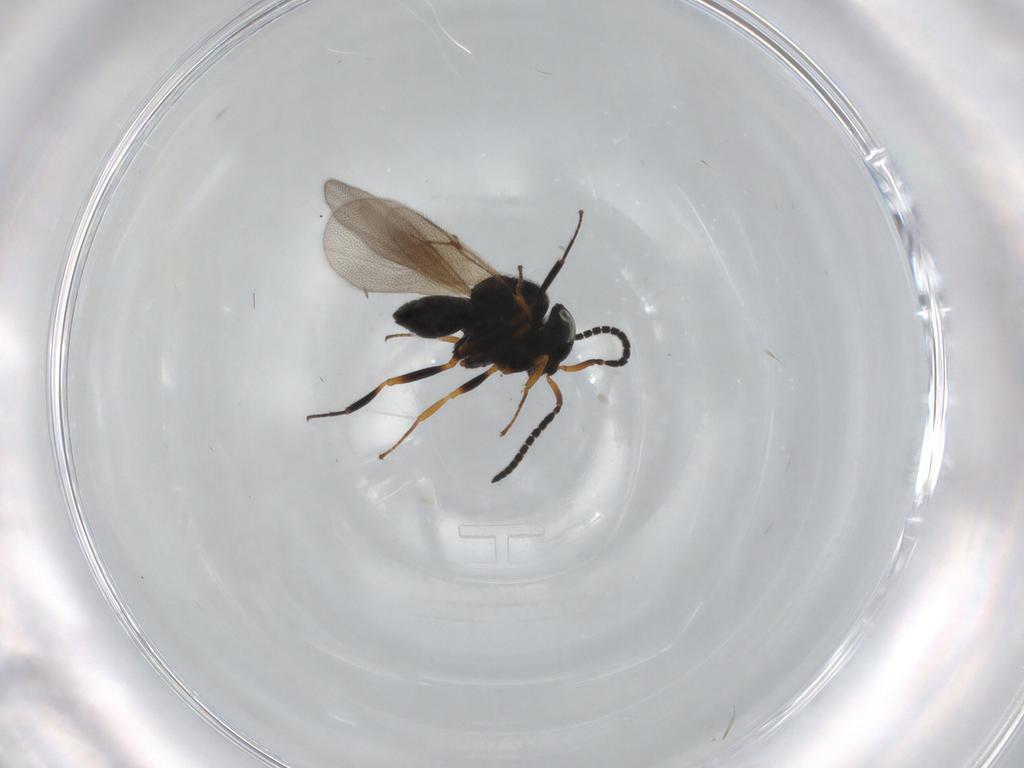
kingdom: Animalia
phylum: Arthropoda
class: Insecta
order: Hymenoptera
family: Scelionidae
